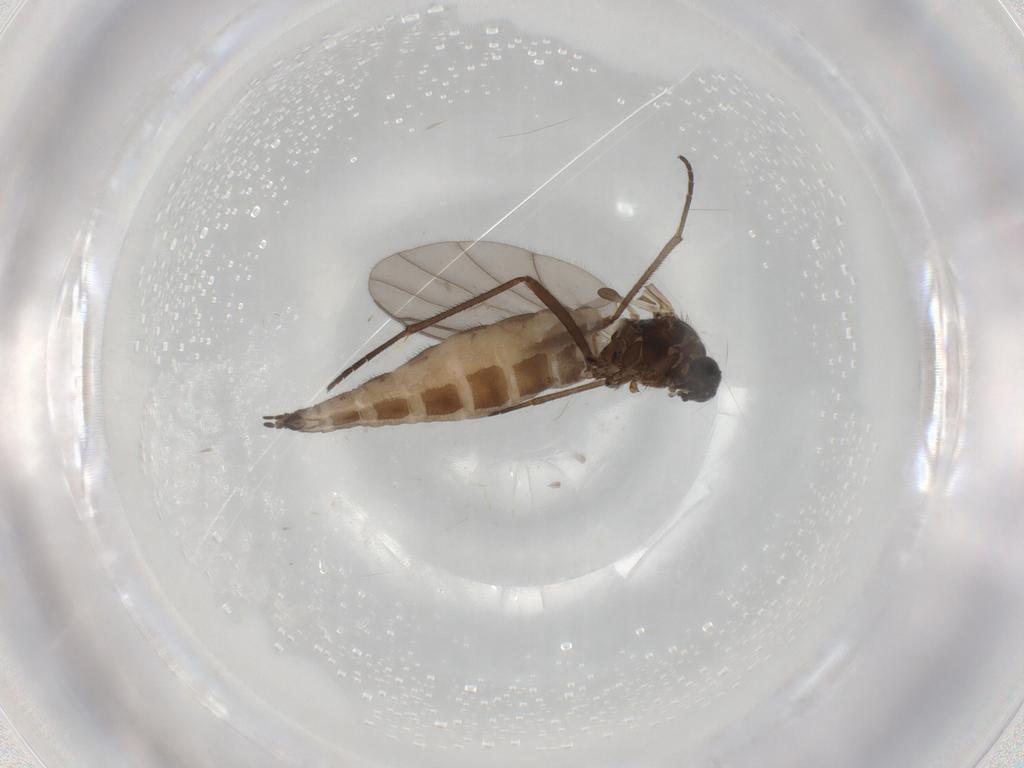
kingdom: Animalia
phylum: Arthropoda
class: Insecta
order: Diptera
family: Sciaridae
